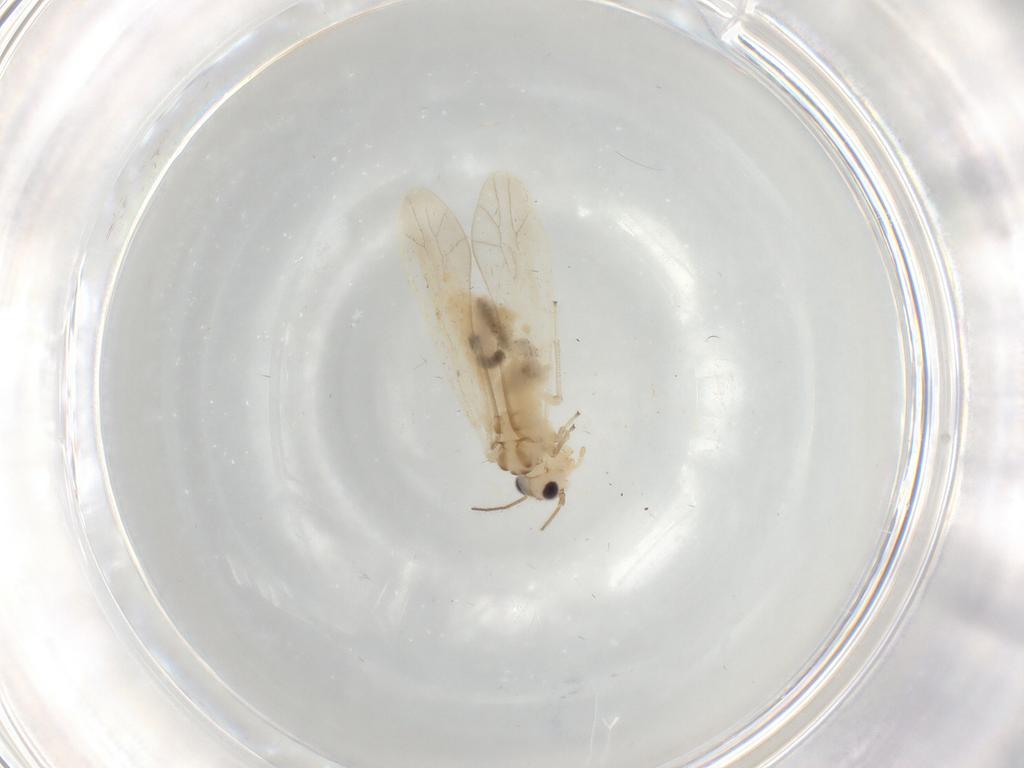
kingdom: Animalia
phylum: Arthropoda
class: Insecta
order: Psocodea
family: Caeciliusidae
